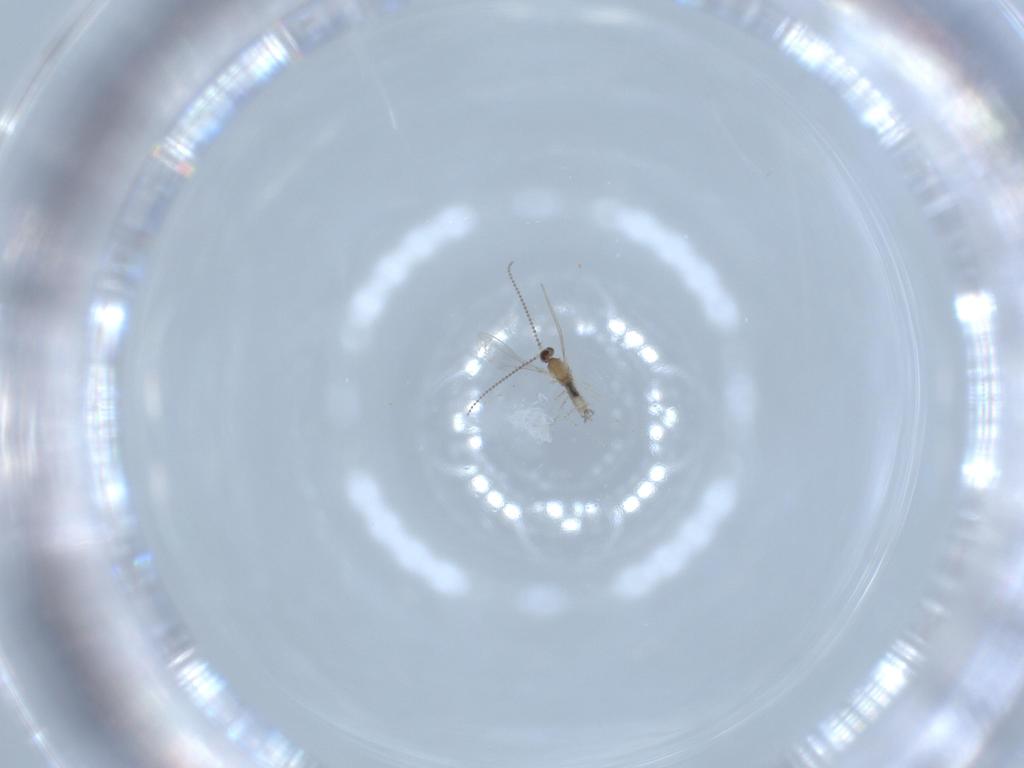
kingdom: Animalia
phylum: Arthropoda
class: Insecta
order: Diptera
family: Cecidomyiidae
